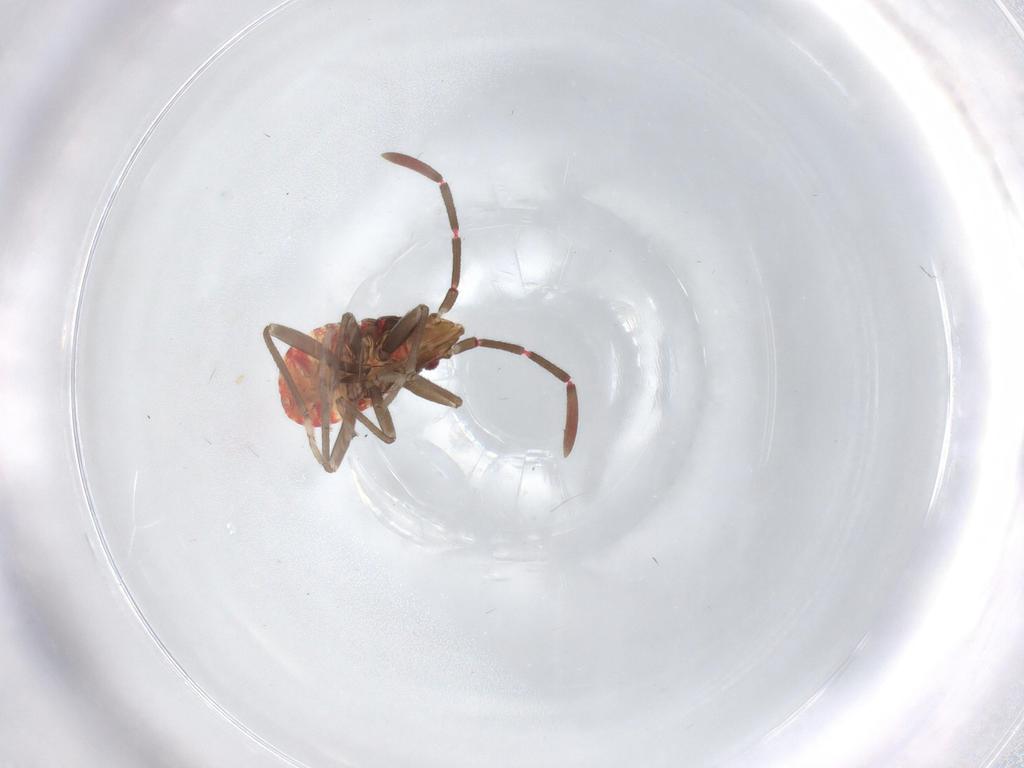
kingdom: Animalia
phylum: Arthropoda
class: Insecta
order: Hemiptera
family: Rhyparochromidae
